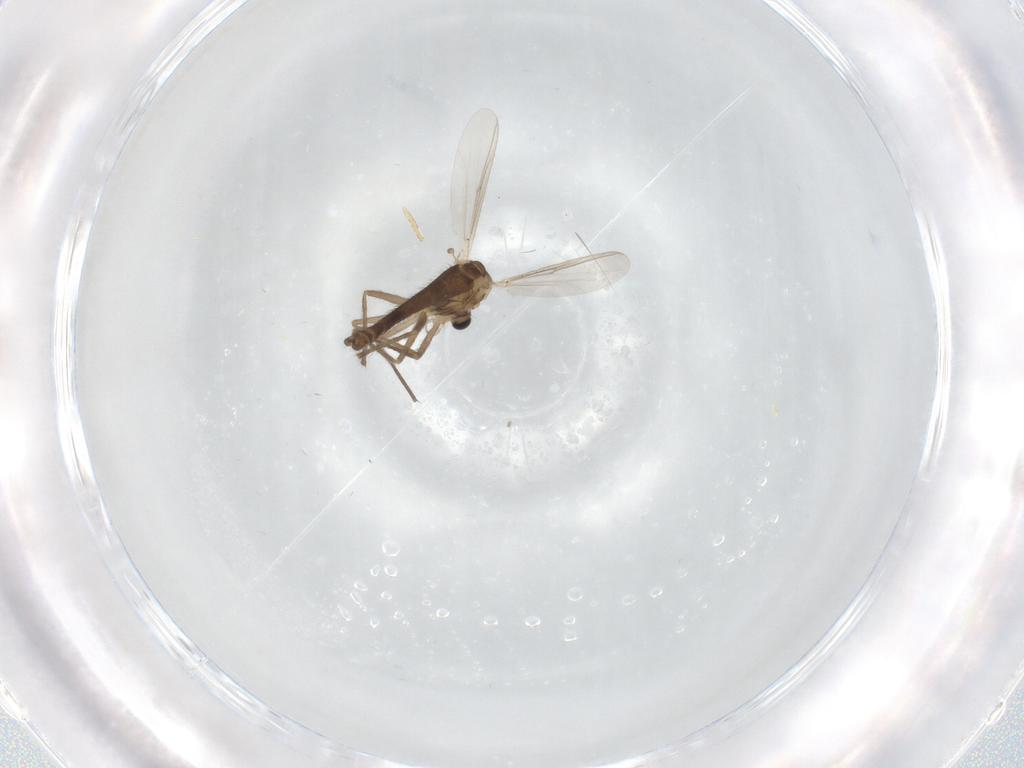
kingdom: Animalia
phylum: Arthropoda
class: Insecta
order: Diptera
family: Chironomidae
